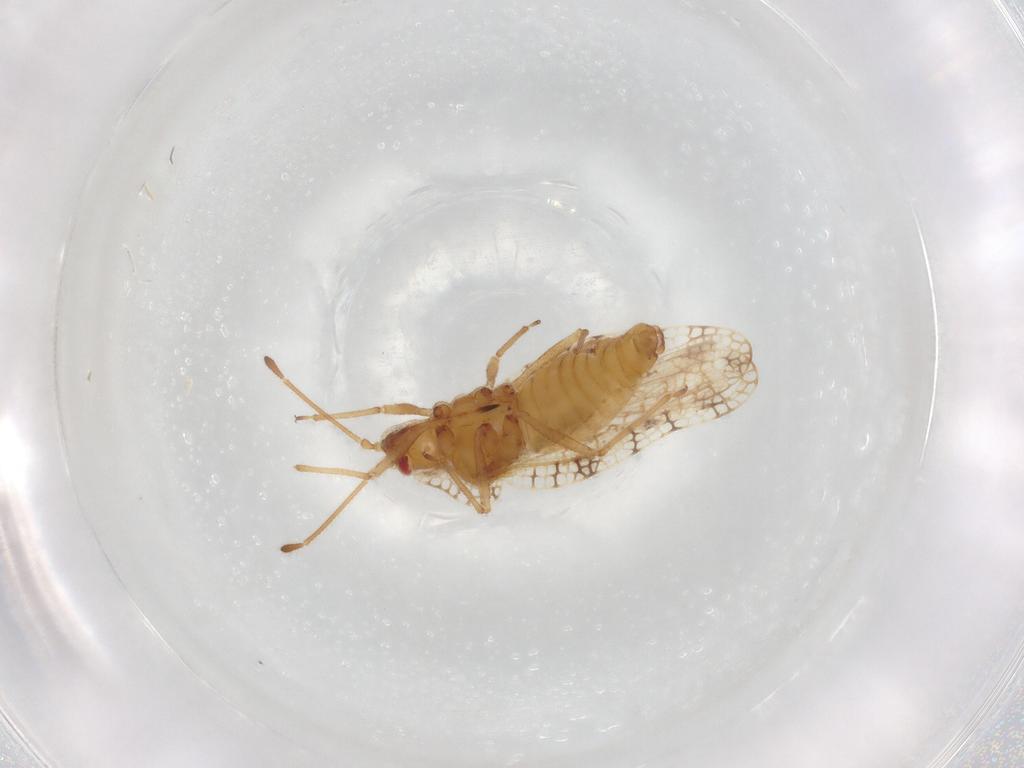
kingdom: Animalia
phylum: Arthropoda
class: Insecta
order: Hemiptera
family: Tingidae
